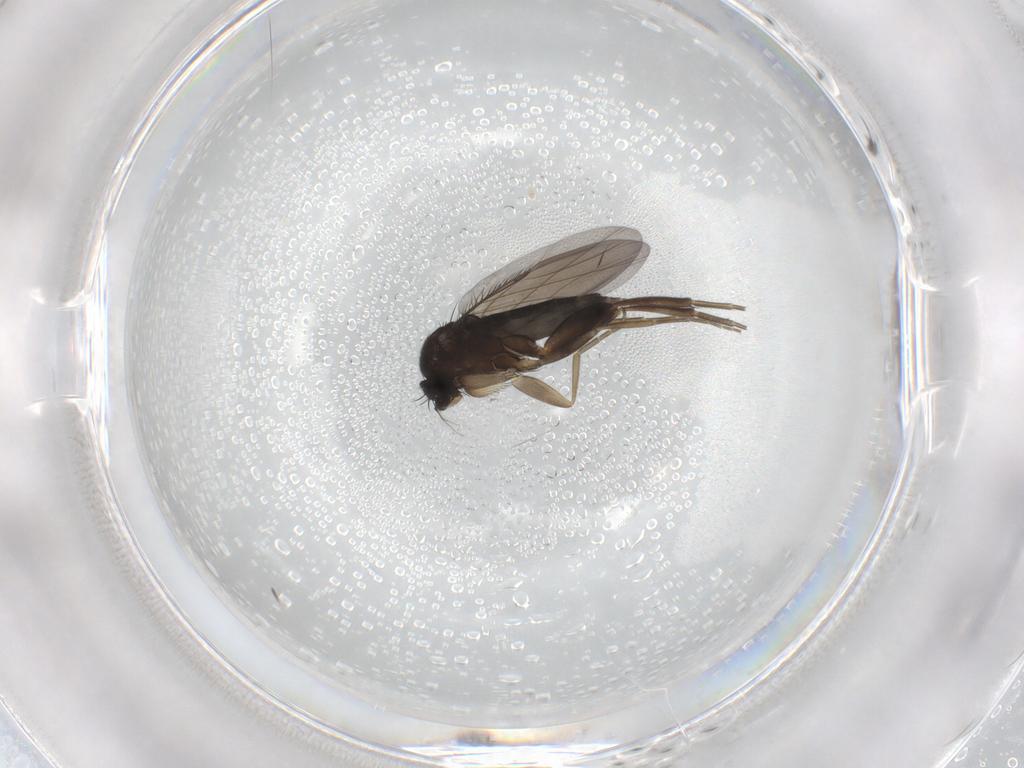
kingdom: Animalia
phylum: Arthropoda
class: Insecta
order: Diptera
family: Phoridae
